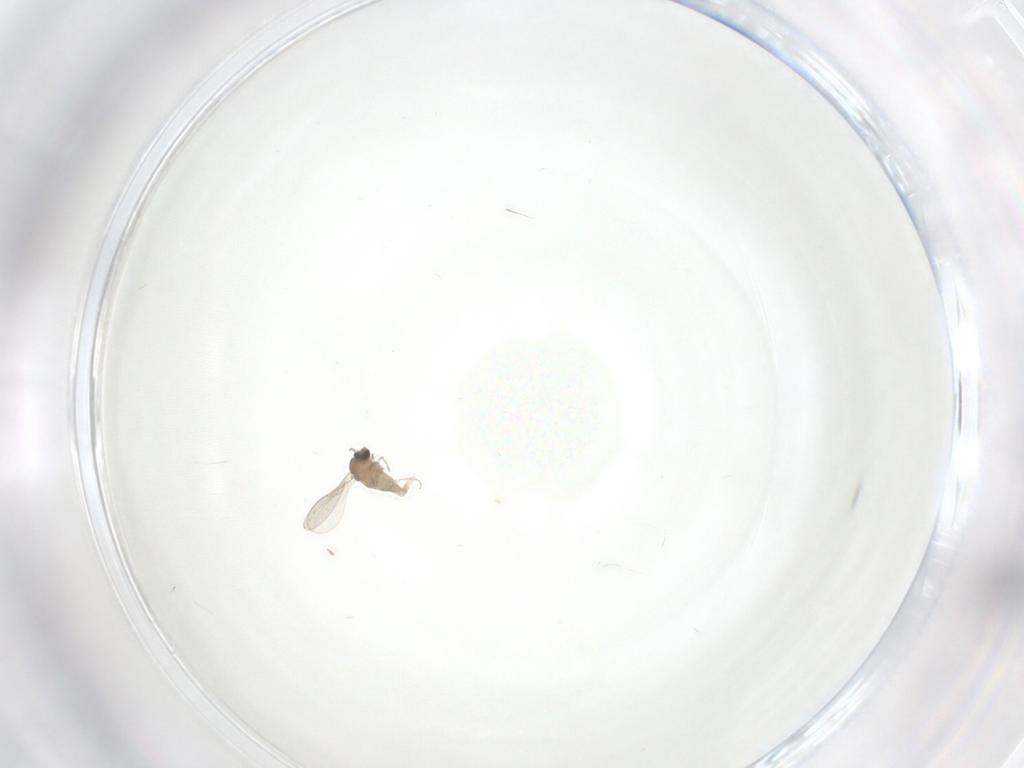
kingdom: Animalia
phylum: Arthropoda
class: Insecta
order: Diptera
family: Cecidomyiidae
